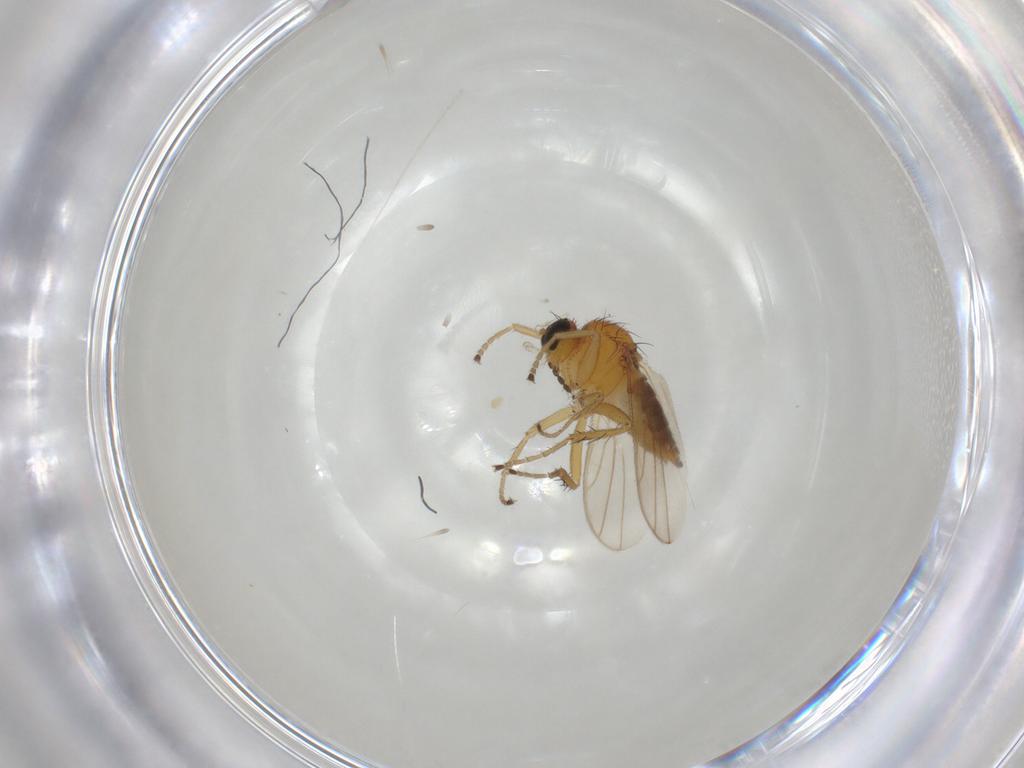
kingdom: Animalia
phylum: Arthropoda
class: Insecta
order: Diptera
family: Hybotidae
